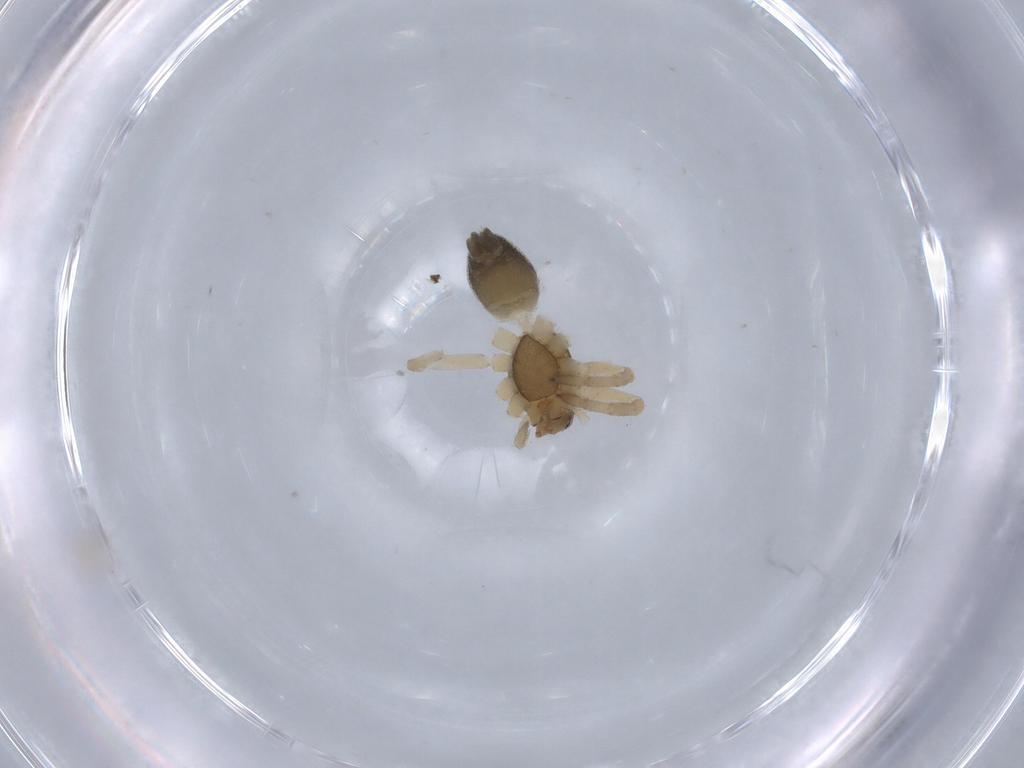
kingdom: Animalia
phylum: Arthropoda
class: Arachnida
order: Araneae
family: Gnaphosidae
